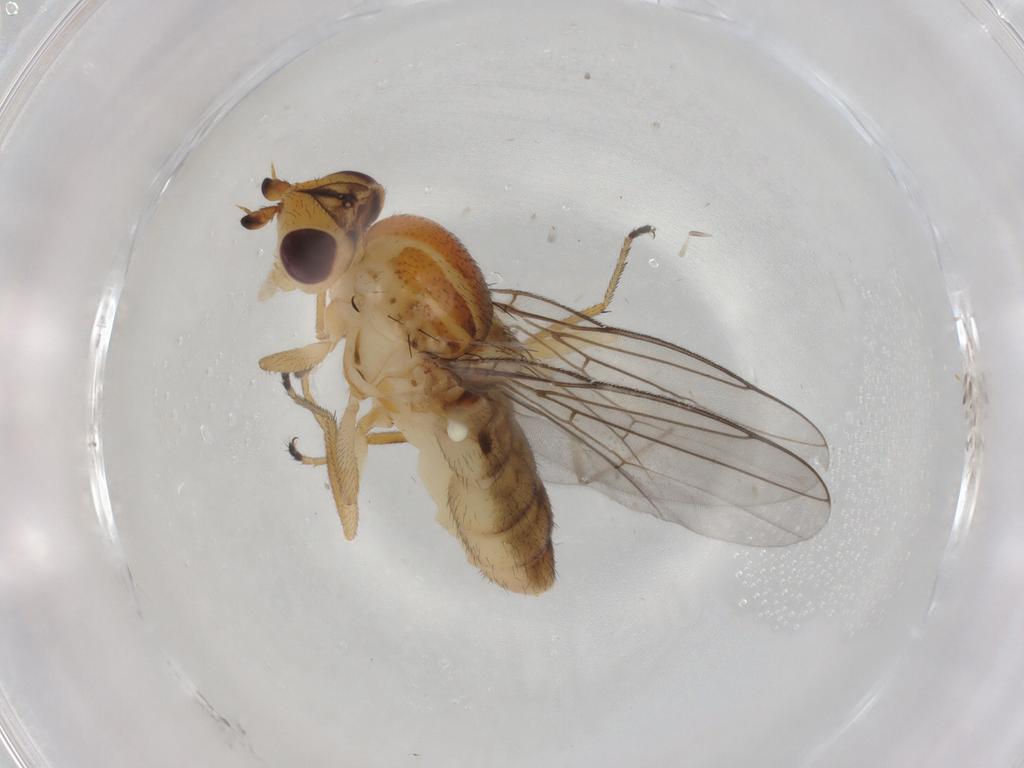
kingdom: Animalia
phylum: Arthropoda
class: Insecta
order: Diptera
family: Chloropidae
